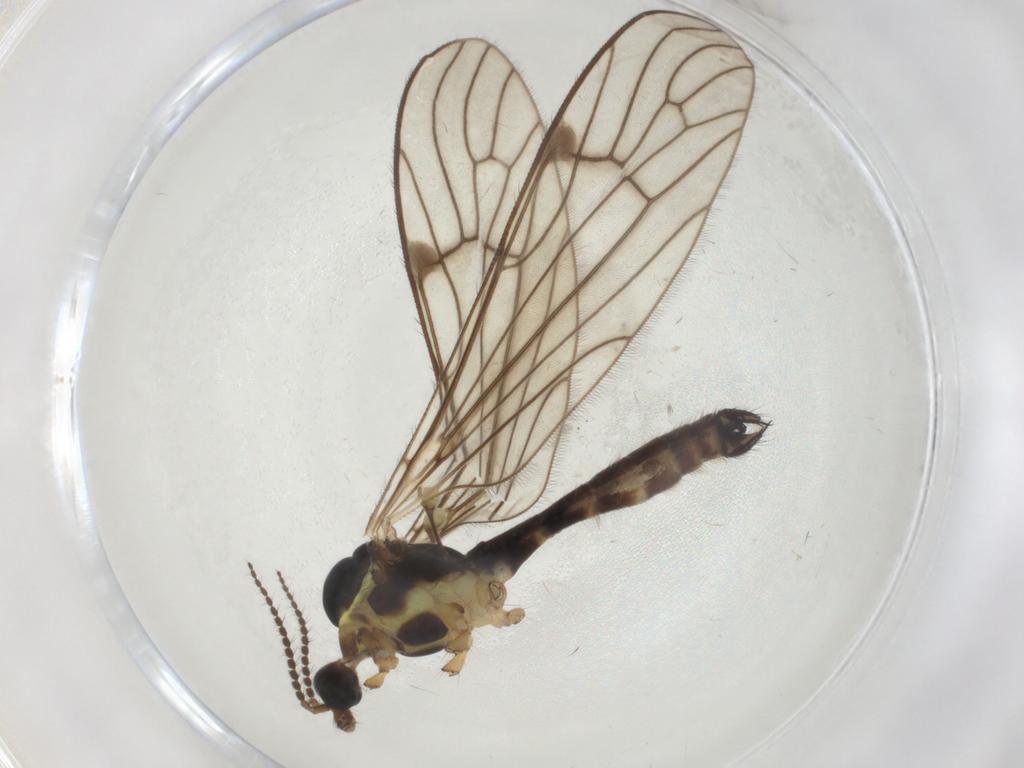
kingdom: Animalia
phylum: Arthropoda
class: Insecta
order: Diptera
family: Limoniidae
